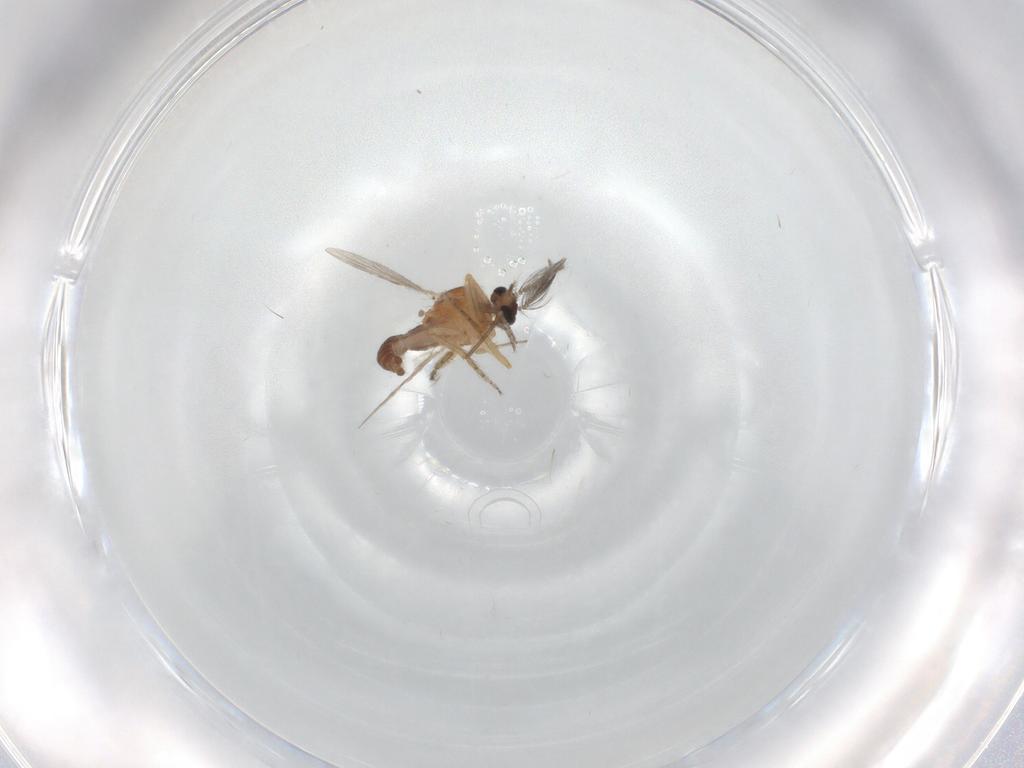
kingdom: Animalia
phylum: Arthropoda
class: Insecta
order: Diptera
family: Ceratopogonidae
